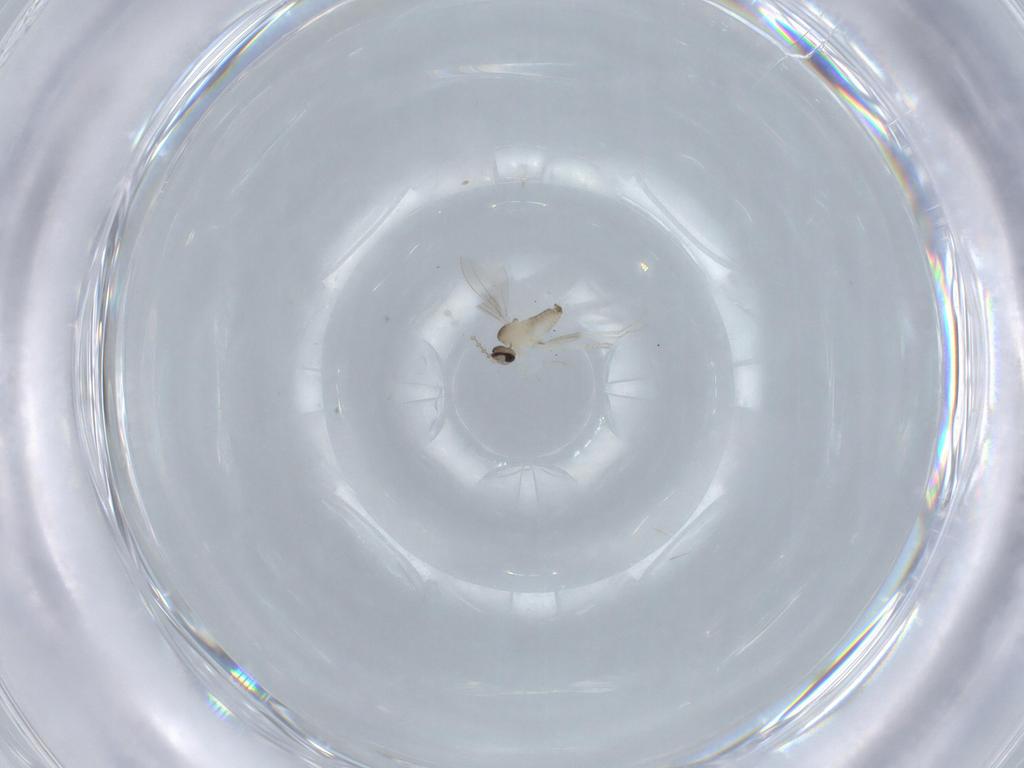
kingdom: Animalia
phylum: Arthropoda
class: Insecta
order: Diptera
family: Cecidomyiidae
